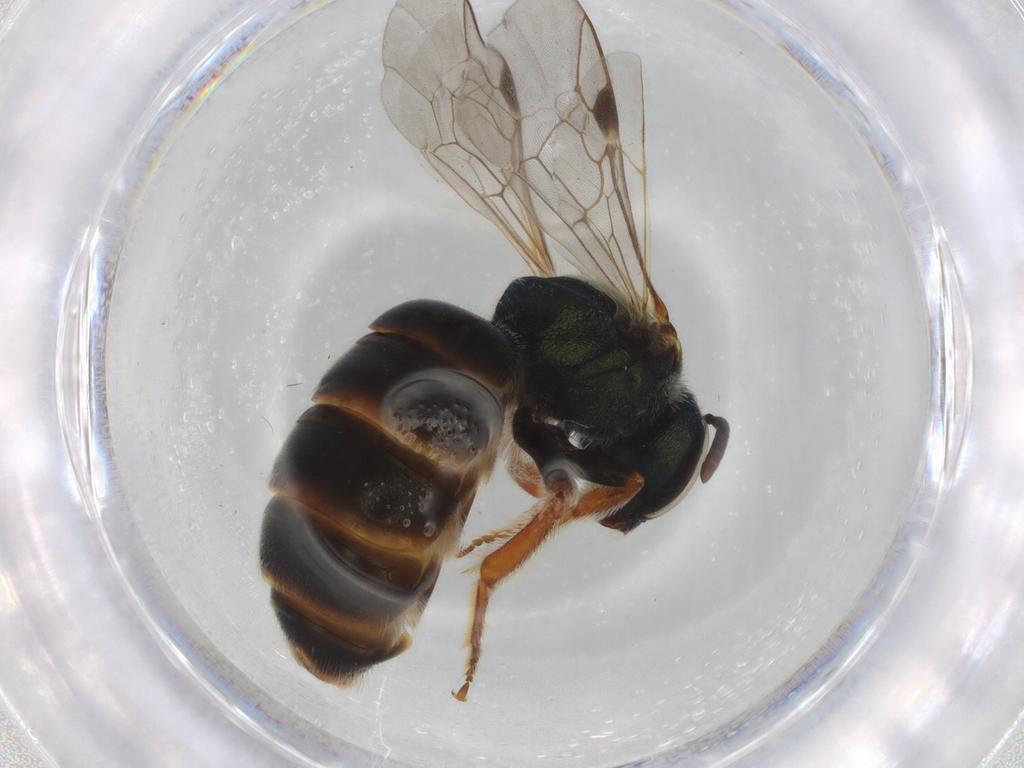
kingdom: Animalia
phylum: Arthropoda
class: Insecta
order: Hymenoptera
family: Halictidae
